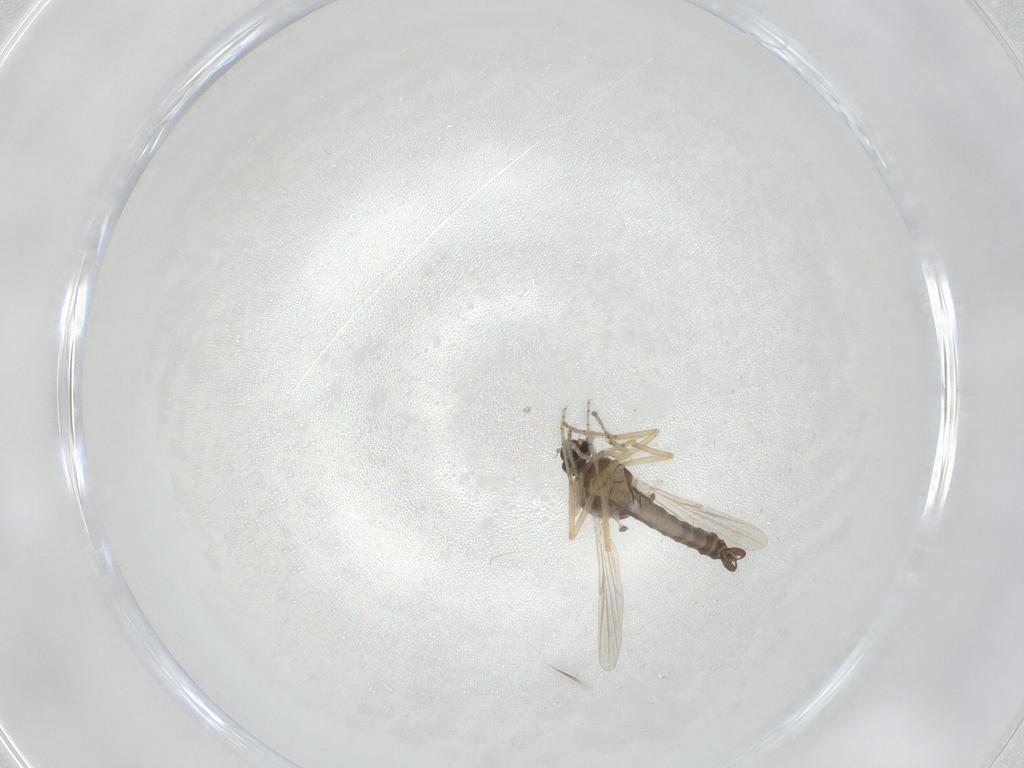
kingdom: Animalia
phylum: Arthropoda
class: Insecta
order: Diptera
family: Ceratopogonidae
